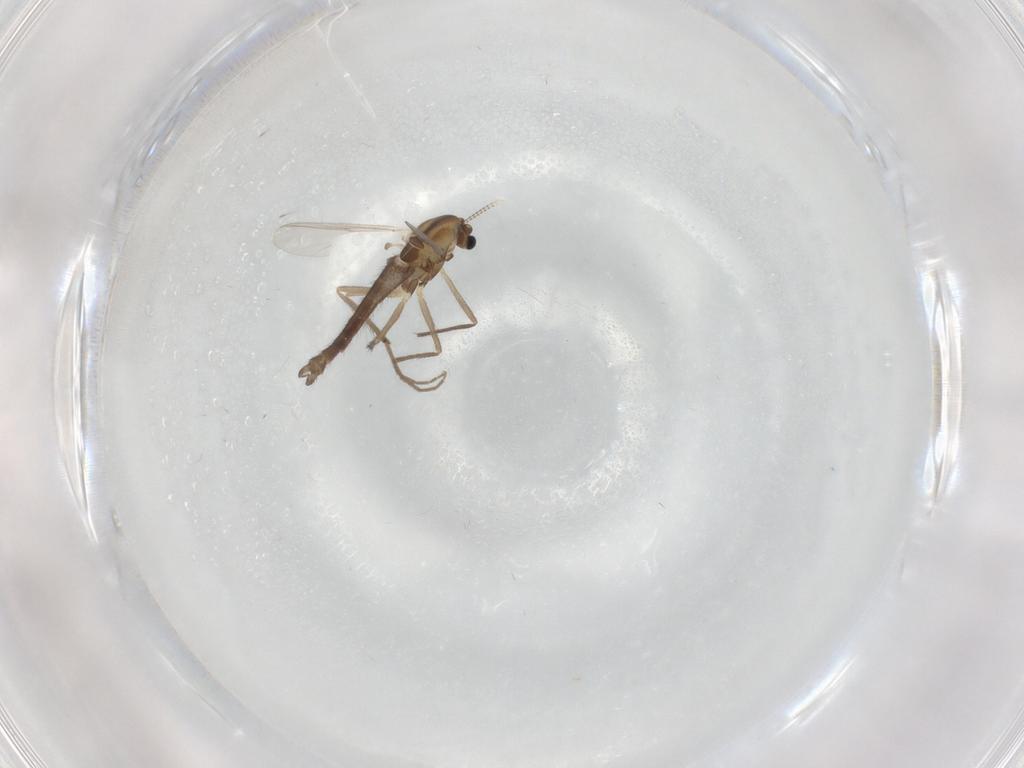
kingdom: Animalia
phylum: Arthropoda
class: Insecta
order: Diptera
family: Chironomidae
